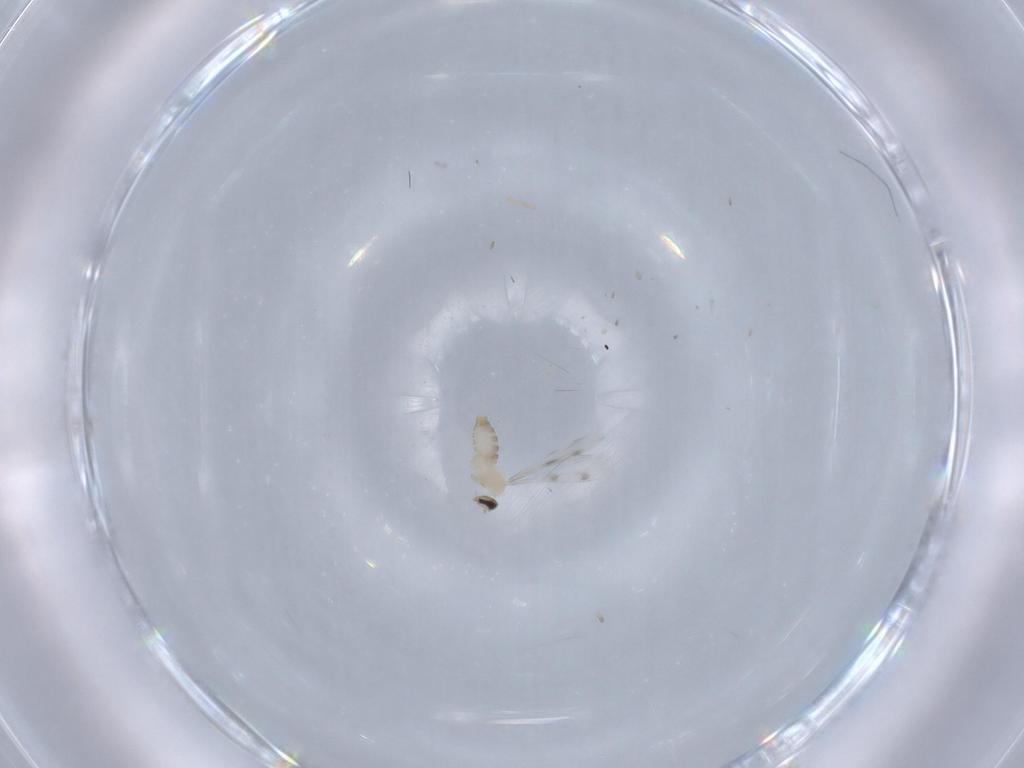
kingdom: Animalia
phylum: Arthropoda
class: Insecta
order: Diptera
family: Cecidomyiidae
